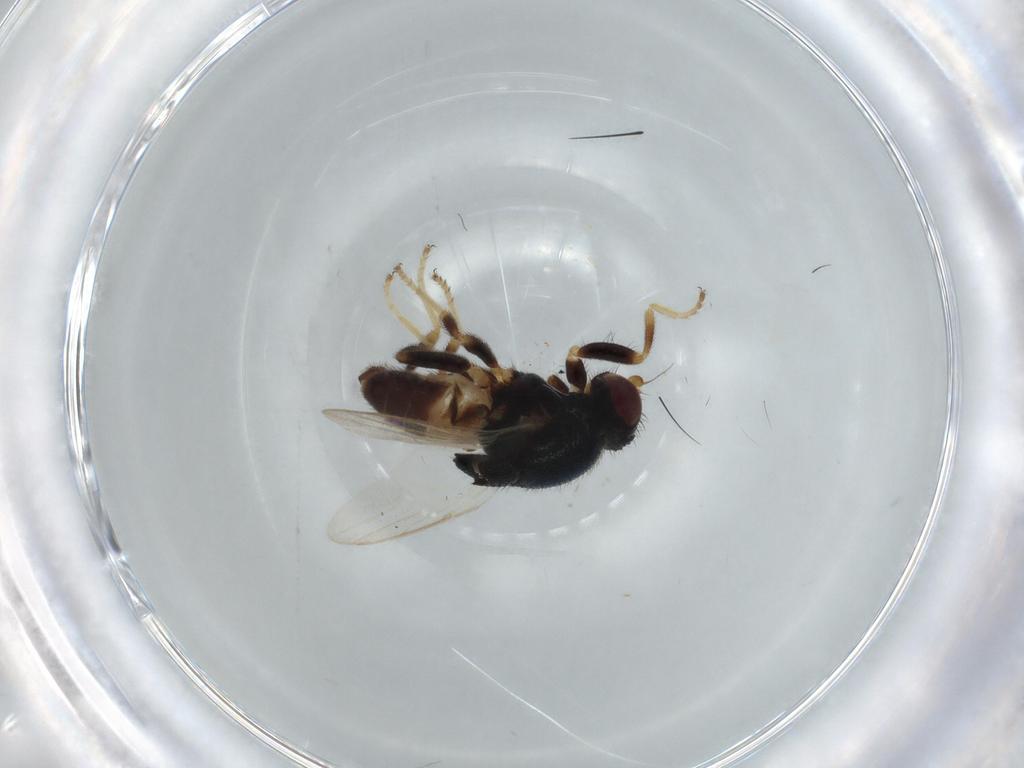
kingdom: Animalia
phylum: Arthropoda
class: Insecta
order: Diptera
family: Chloropidae
